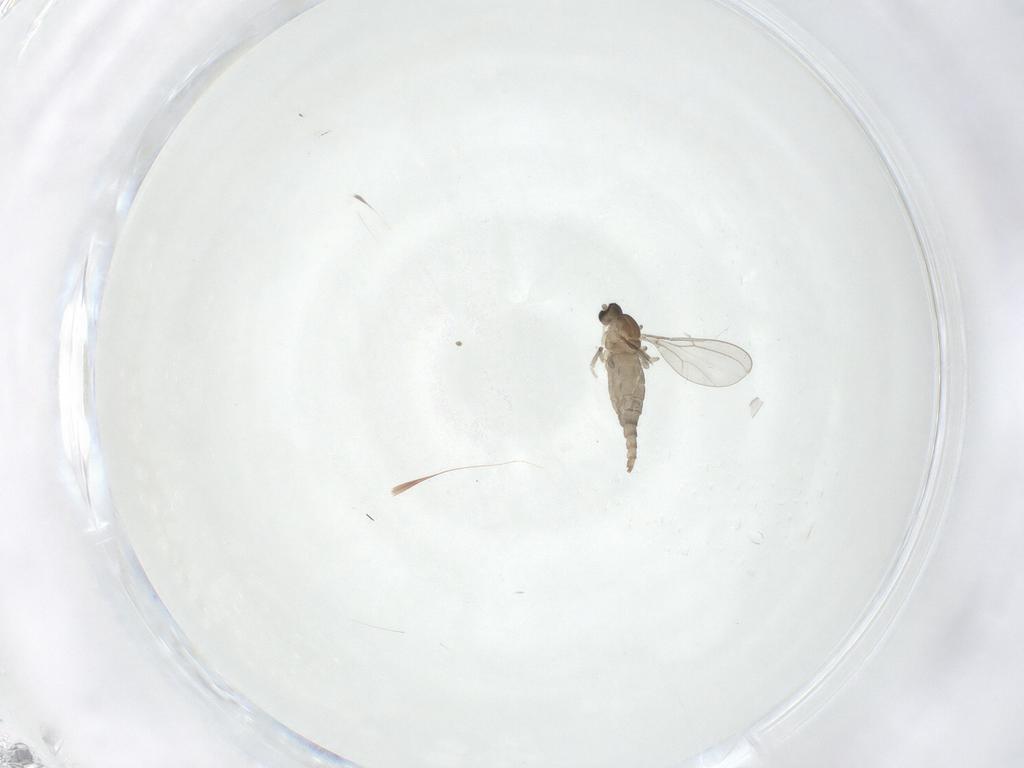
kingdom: Animalia
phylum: Arthropoda
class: Insecta
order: Diptera
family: Cecidomyiidae
